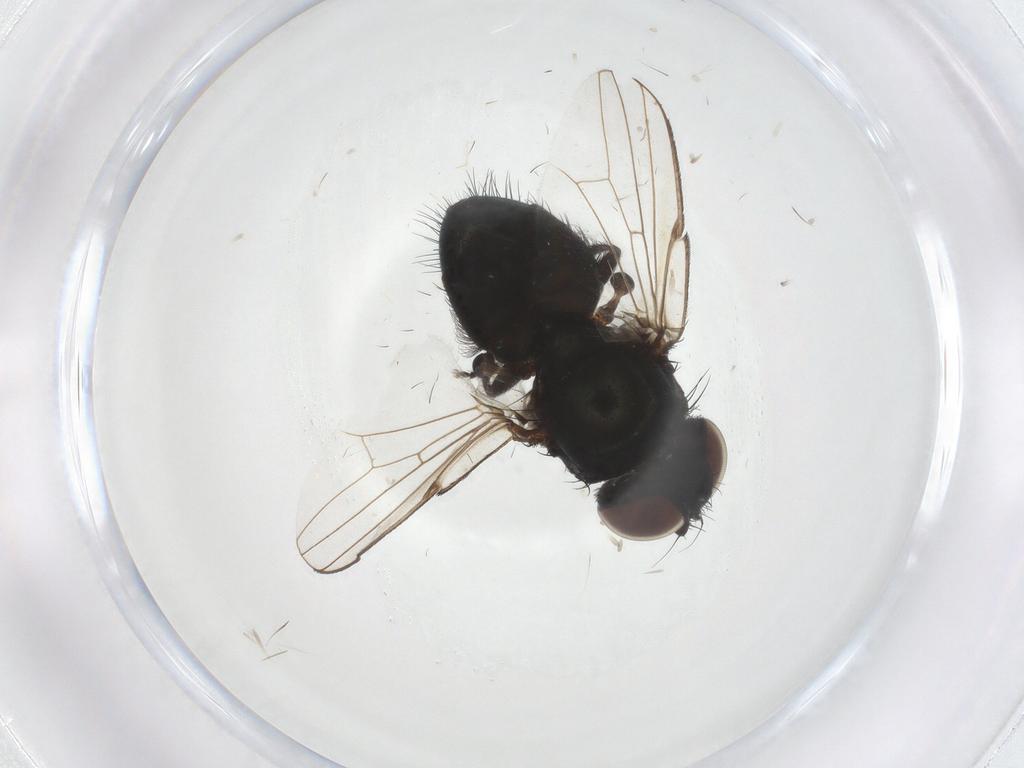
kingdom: Animalia
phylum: Arthropoda
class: Insecta
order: Diptera
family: Milichiidae
